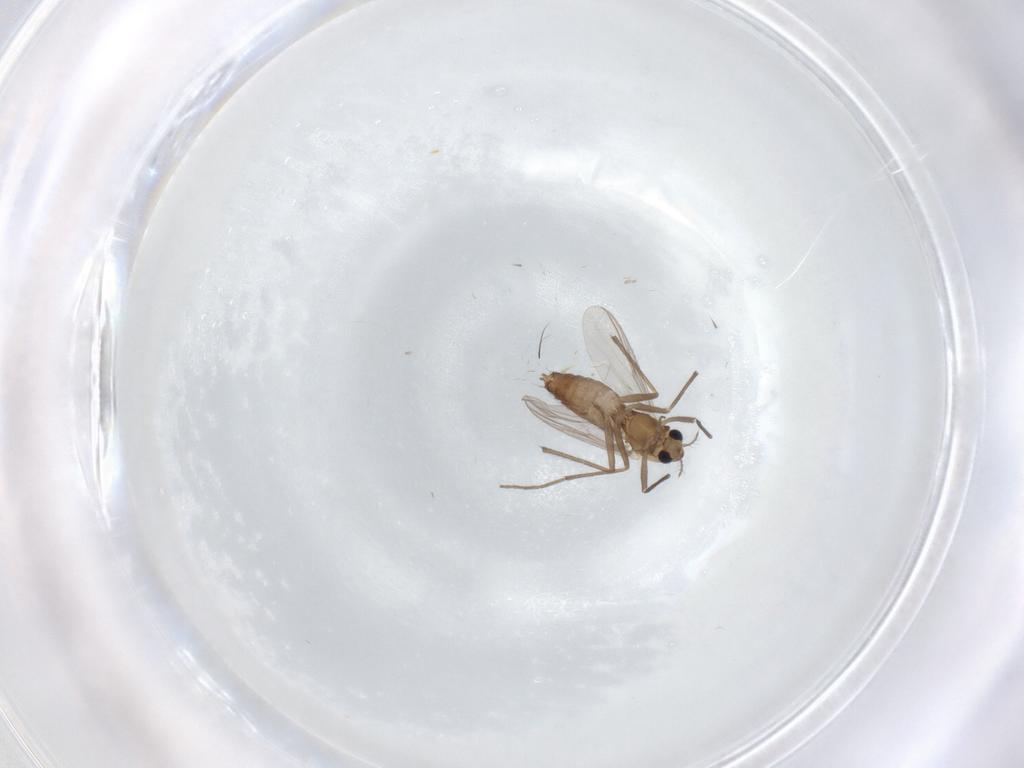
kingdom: Animalia
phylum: Arthropoda
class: Insecta
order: Diptera
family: Chironomidae
